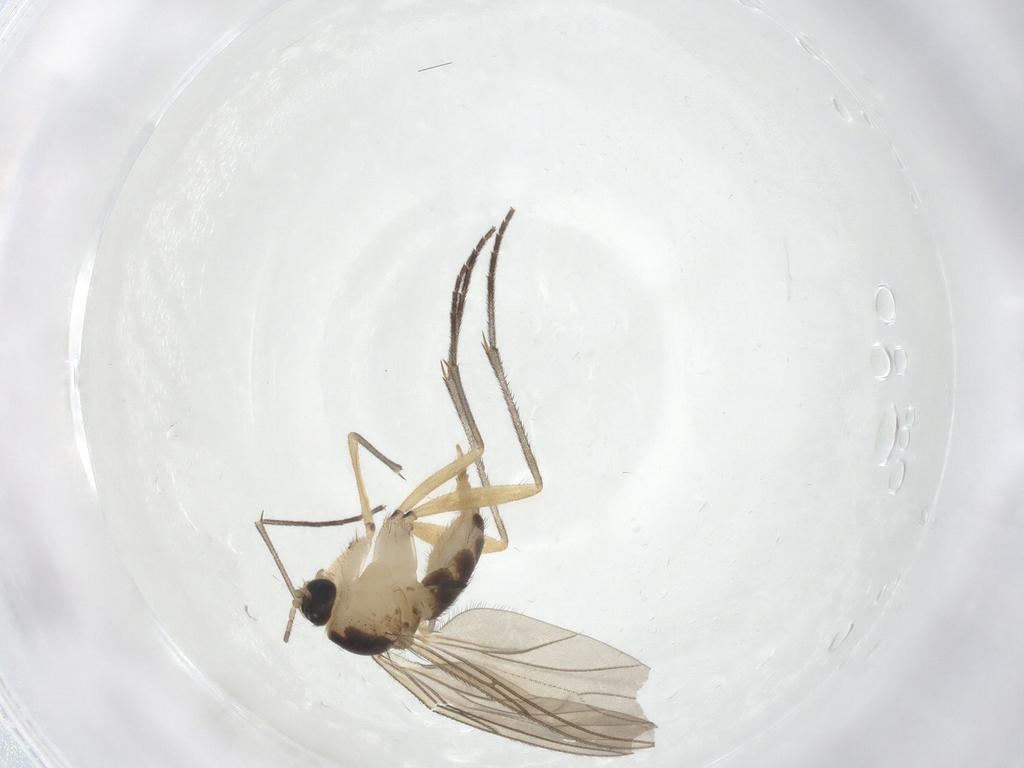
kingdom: Animalia
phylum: Arthropoda
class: Insecta
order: Diptera
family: Sciaridae
